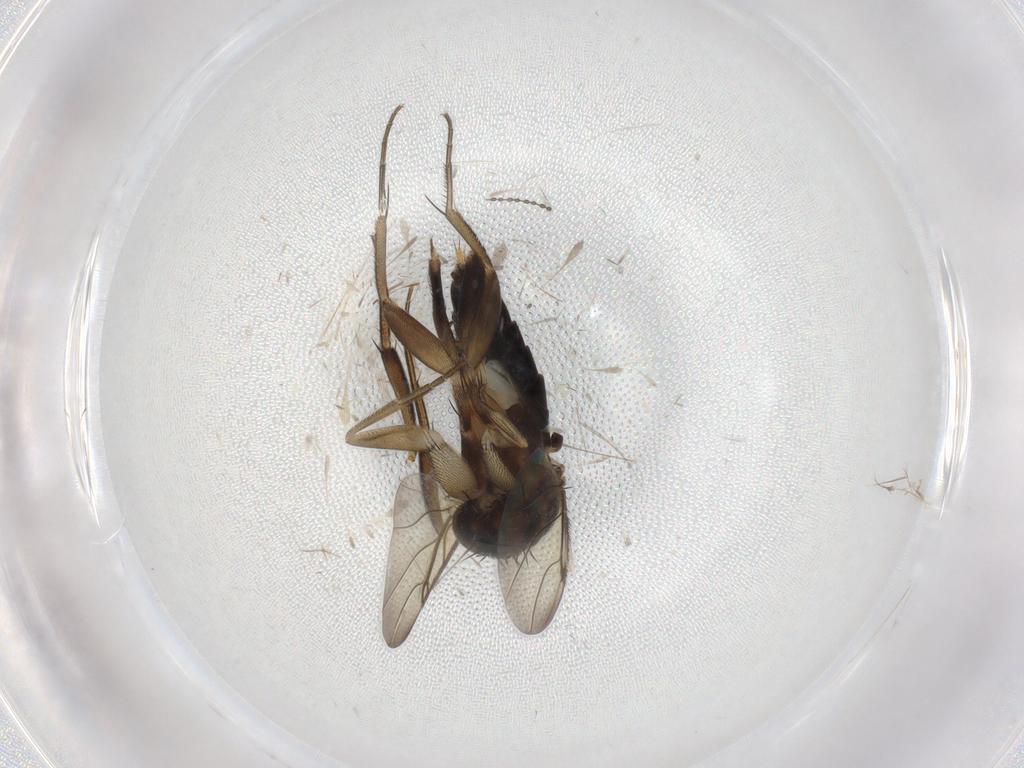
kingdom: Animalia
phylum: Arthropoda
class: Insecta
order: Diptera
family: Phoridae
